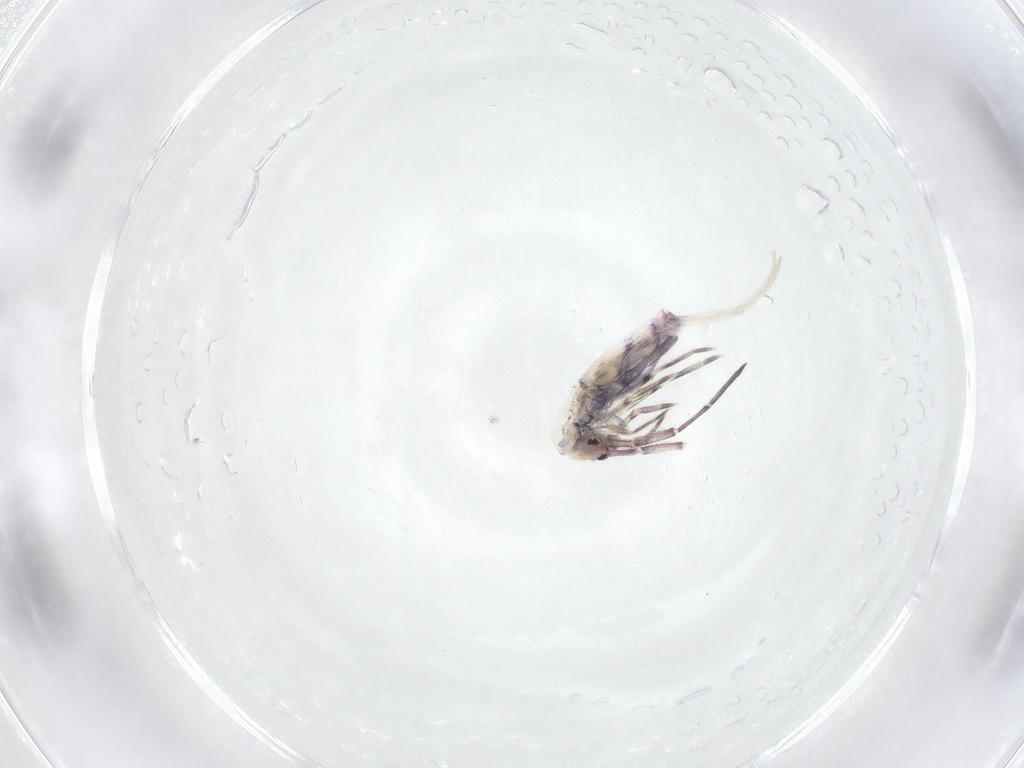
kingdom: Animalia
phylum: Arthropoda
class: Collembola
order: Entomobryomorpha
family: Entomobryidae
